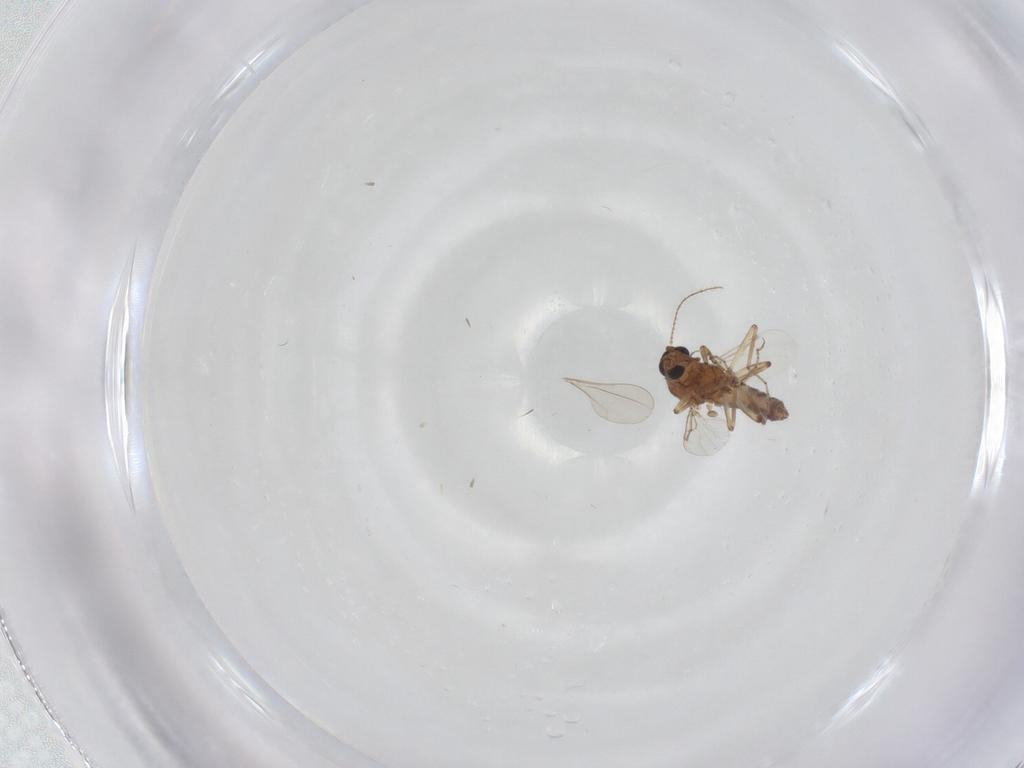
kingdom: Animalia
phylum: Arthropoda
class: Insecta
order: Diptera
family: Ceratopogonidae
